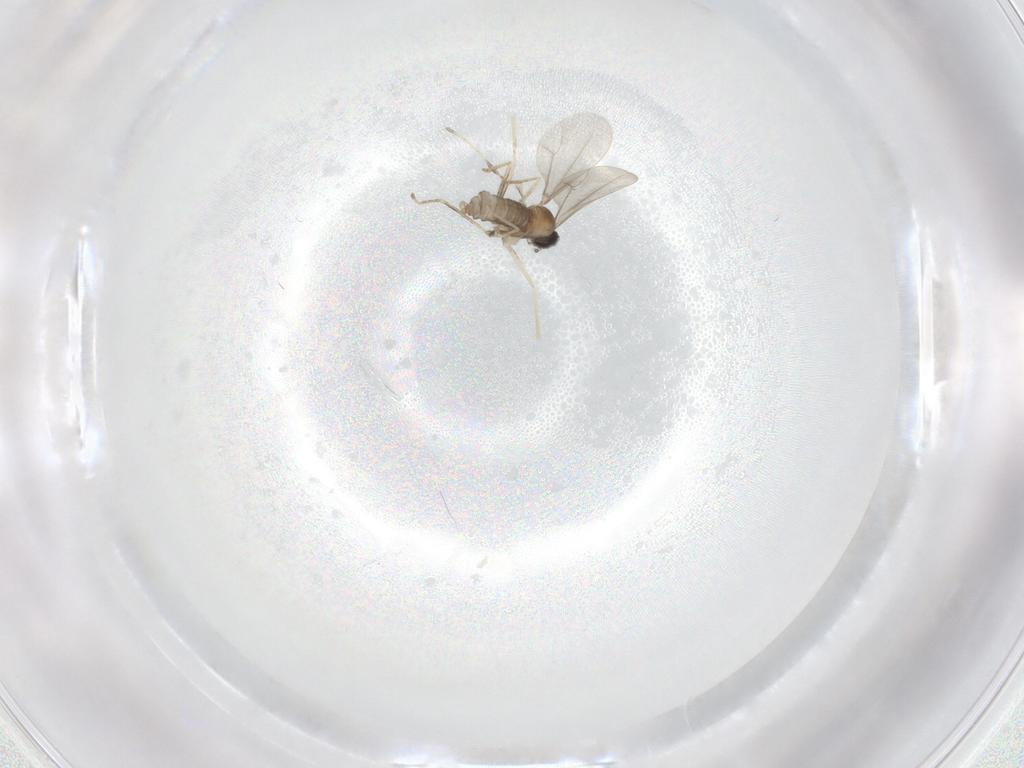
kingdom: Animalia
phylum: Arthropoda
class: Insecta
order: Diptera
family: Cecidomyiidae
